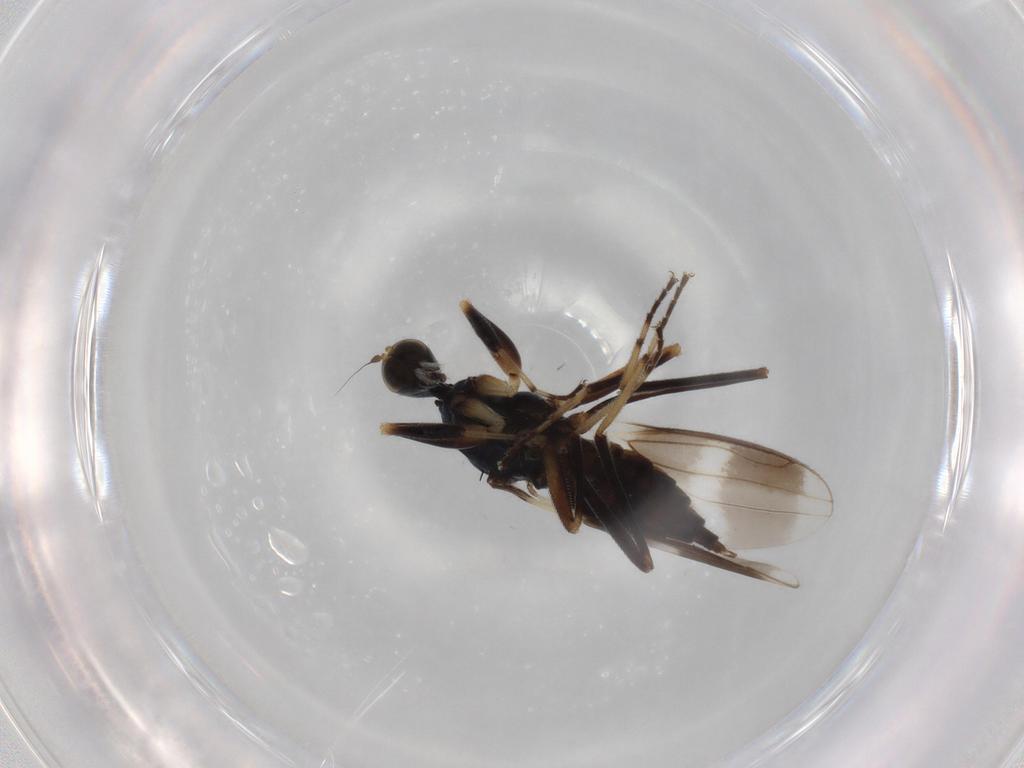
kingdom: Animalia
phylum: Arthropoda
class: Insecta
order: Diptera
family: Hybotidae
